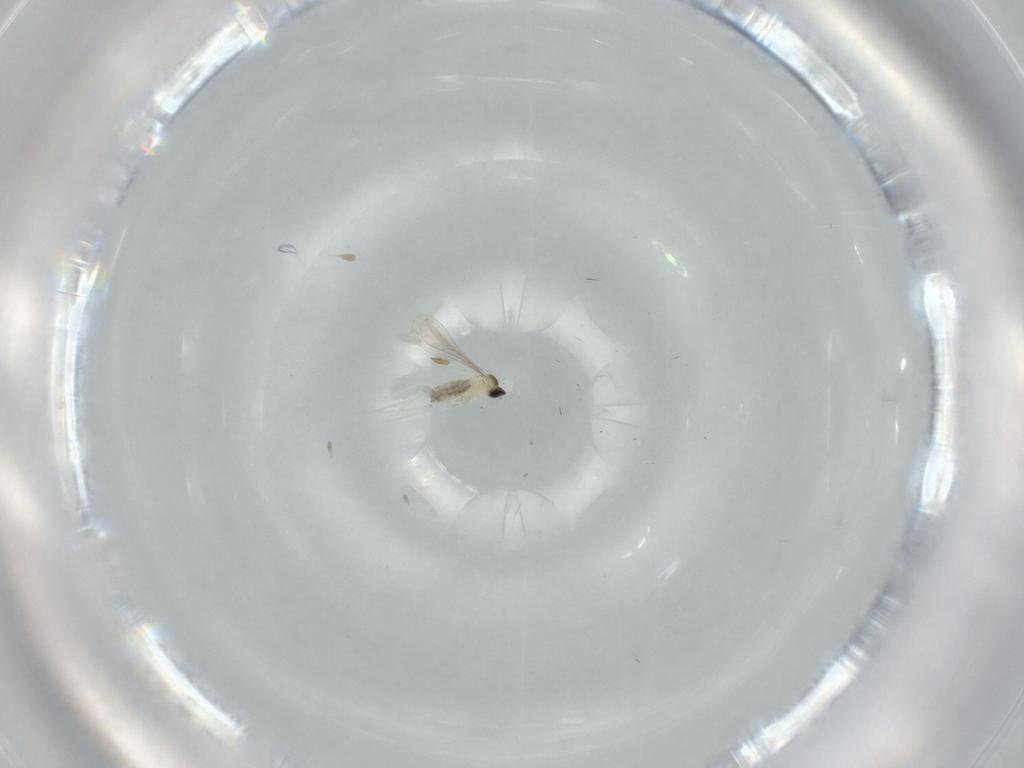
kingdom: Animalia
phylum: Arthropoda
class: Insecta
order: Diptera
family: Ceratopogonidae
